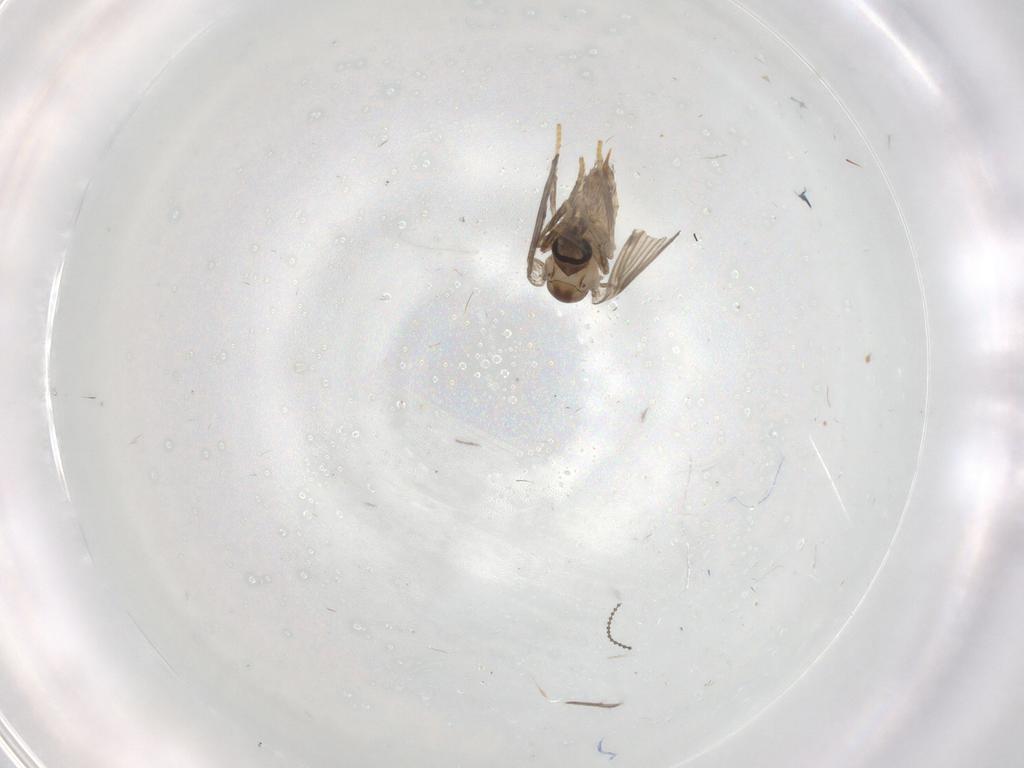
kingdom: Animalia
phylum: Arthropoda
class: Insecta
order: Diptera
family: Psychodidae
